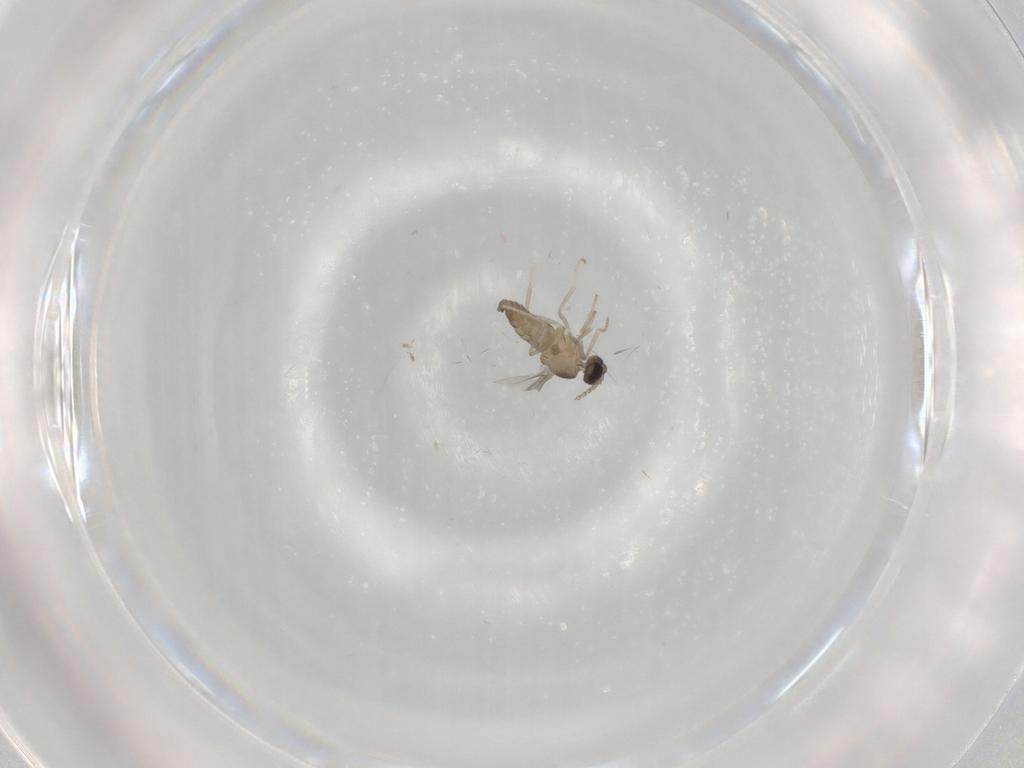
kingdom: Animalia
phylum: Arthropoda
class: Insecta
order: Diptera
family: Cecidomyiidae
